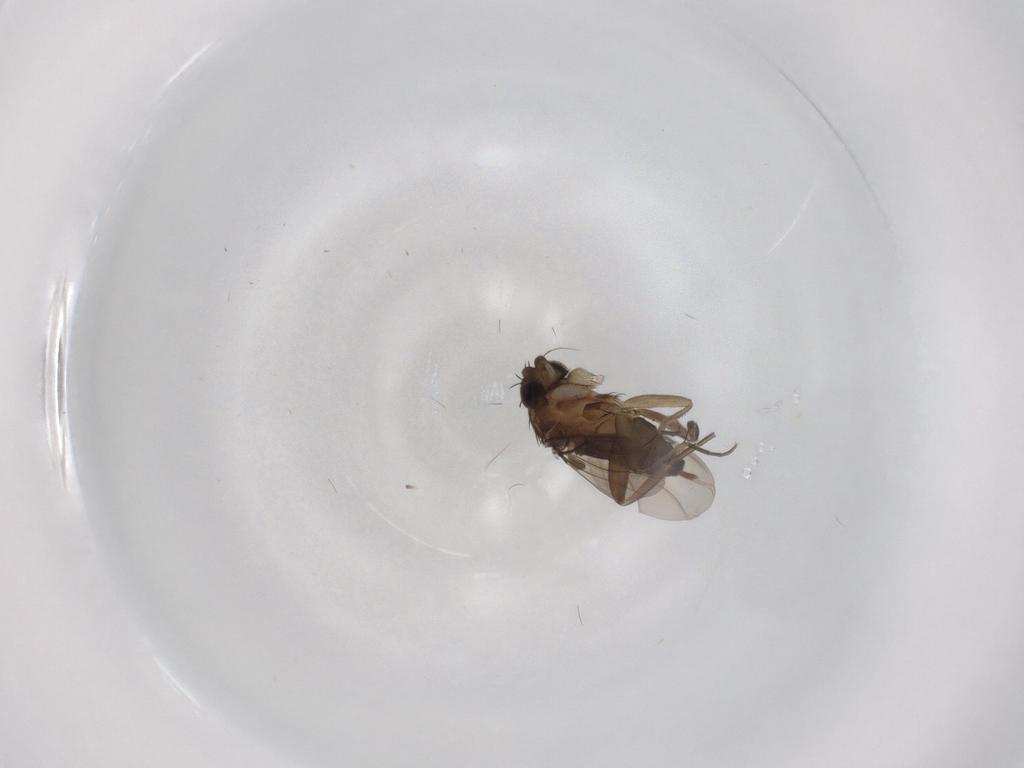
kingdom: Animalia
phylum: Arthropoda
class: Insecta
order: Diptera
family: Phoridae
